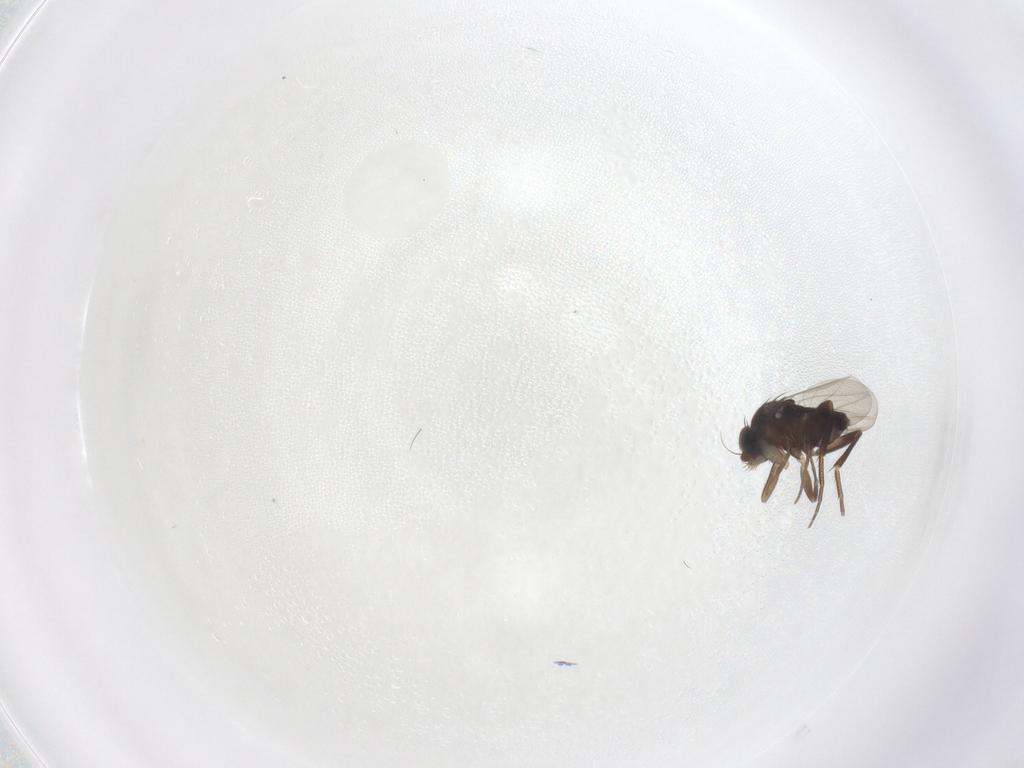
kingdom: Animalia
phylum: Arthropoda
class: Insecta
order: Diptera
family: Phoridae
